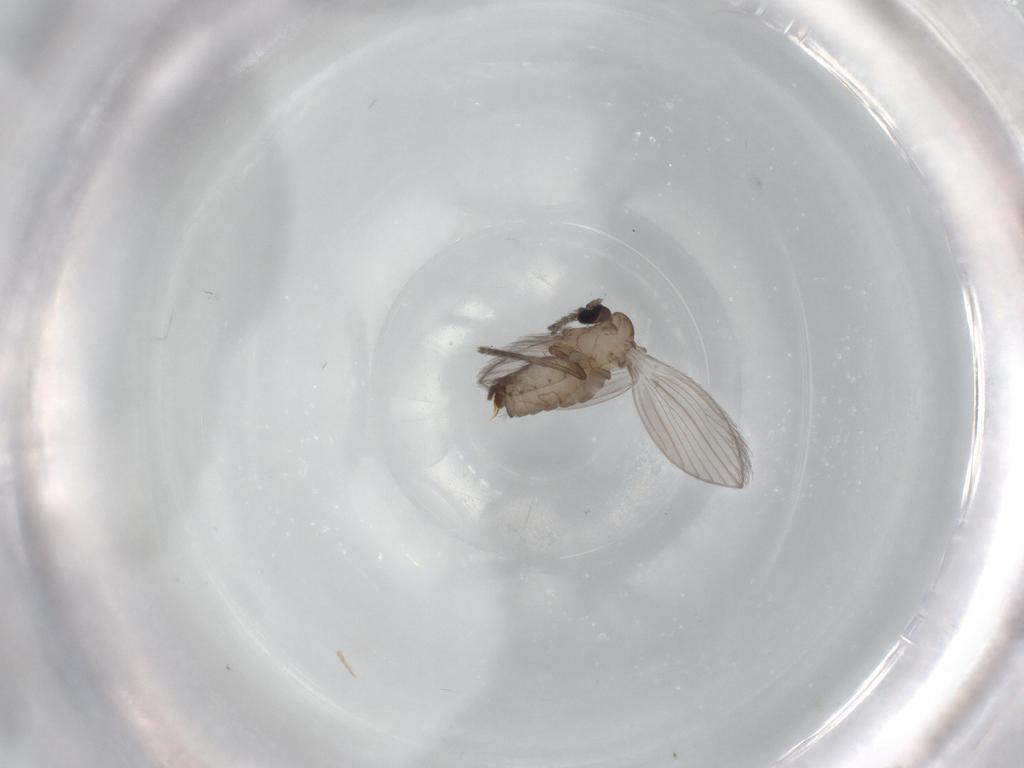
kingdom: Animalia
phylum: Arthropoda
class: Insecta
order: Diptera
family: Psychodidae
